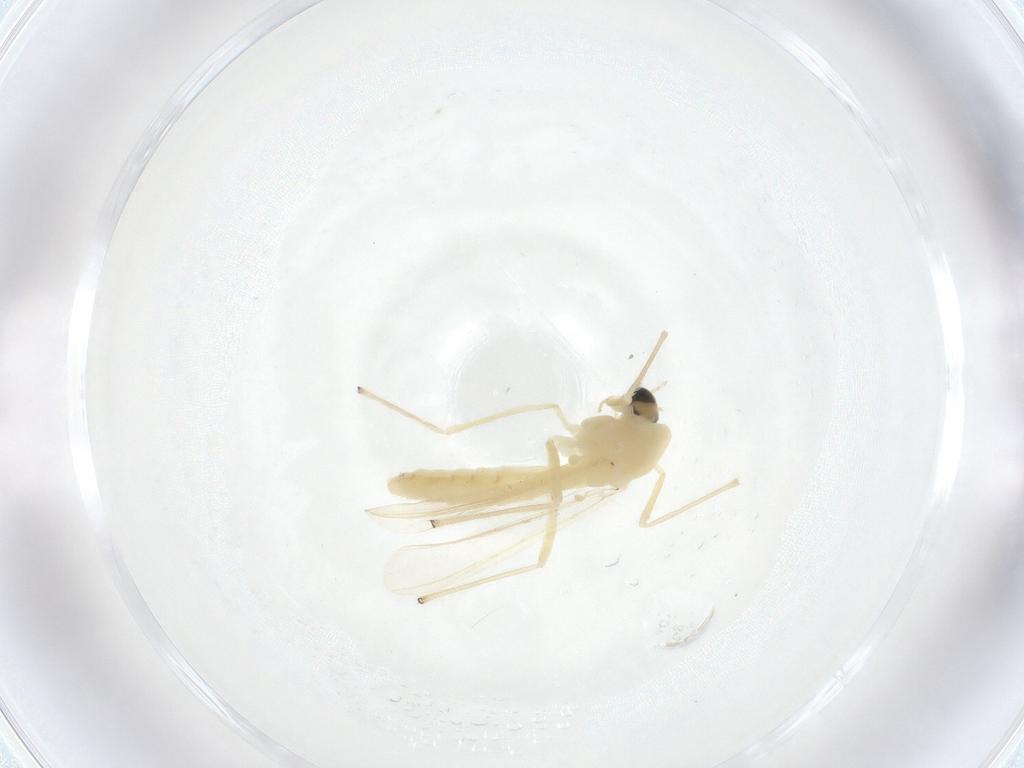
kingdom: Animalia
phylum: Arthropoda
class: Insecta
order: Diptera
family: Chironomidae
